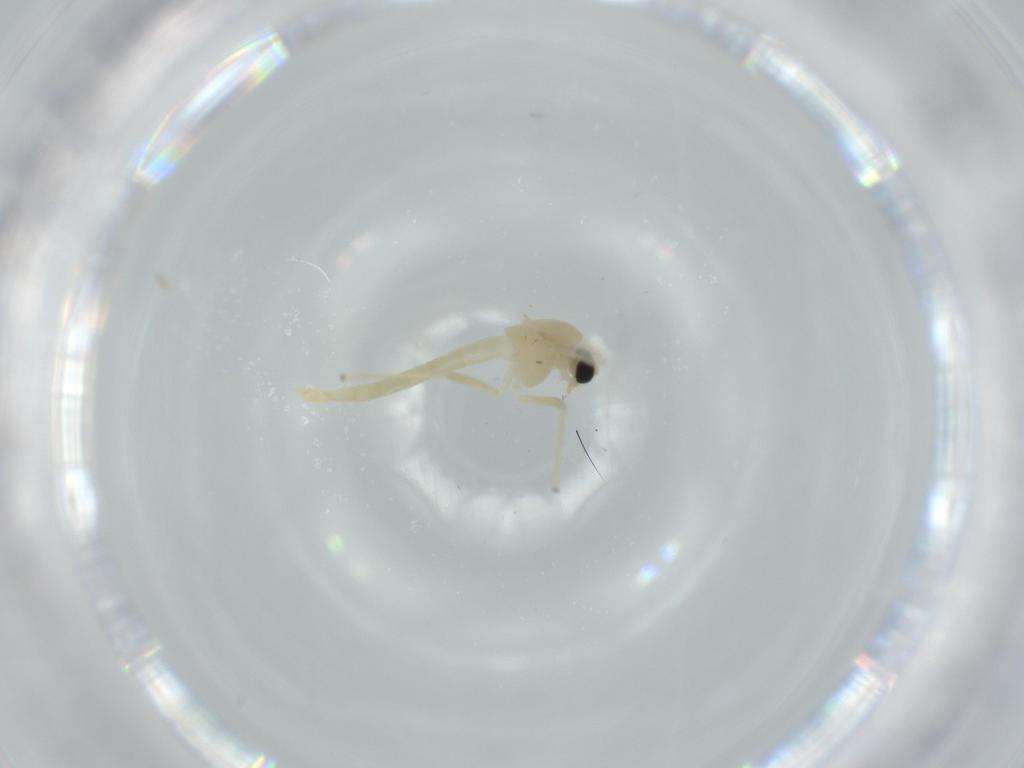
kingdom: Animalia
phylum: Arthropoda
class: Insecta
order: Diptera
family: Chironomidae
